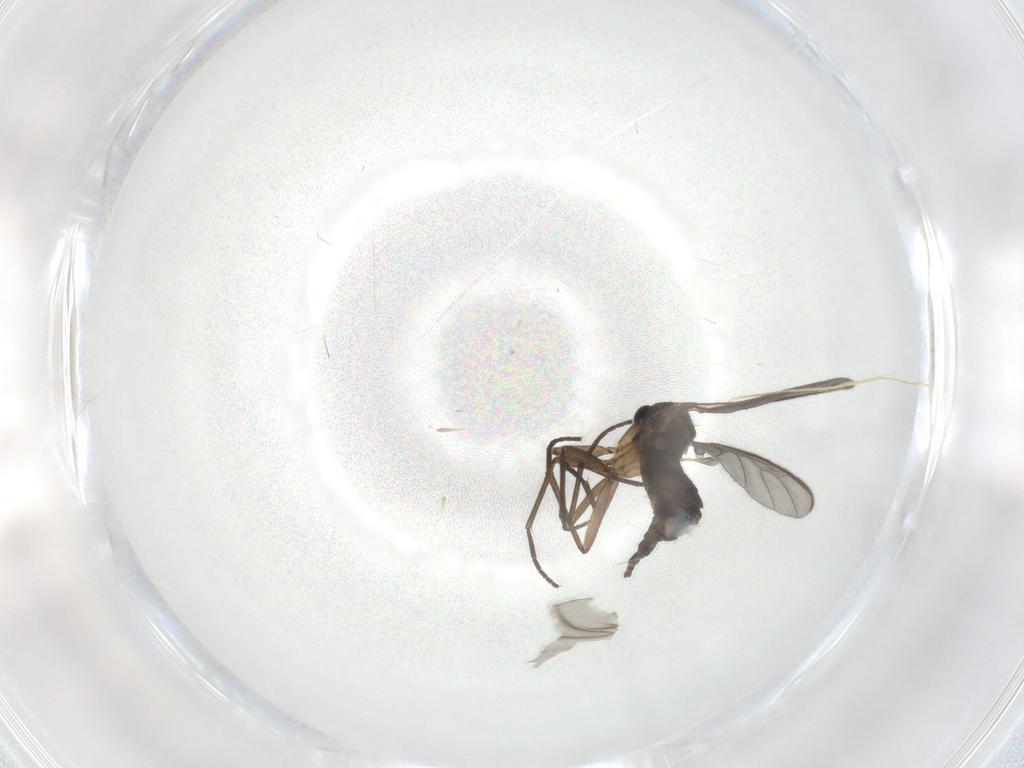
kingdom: Animalia
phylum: Arthropoda
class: Insecta
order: Diptera
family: Sciaridae
